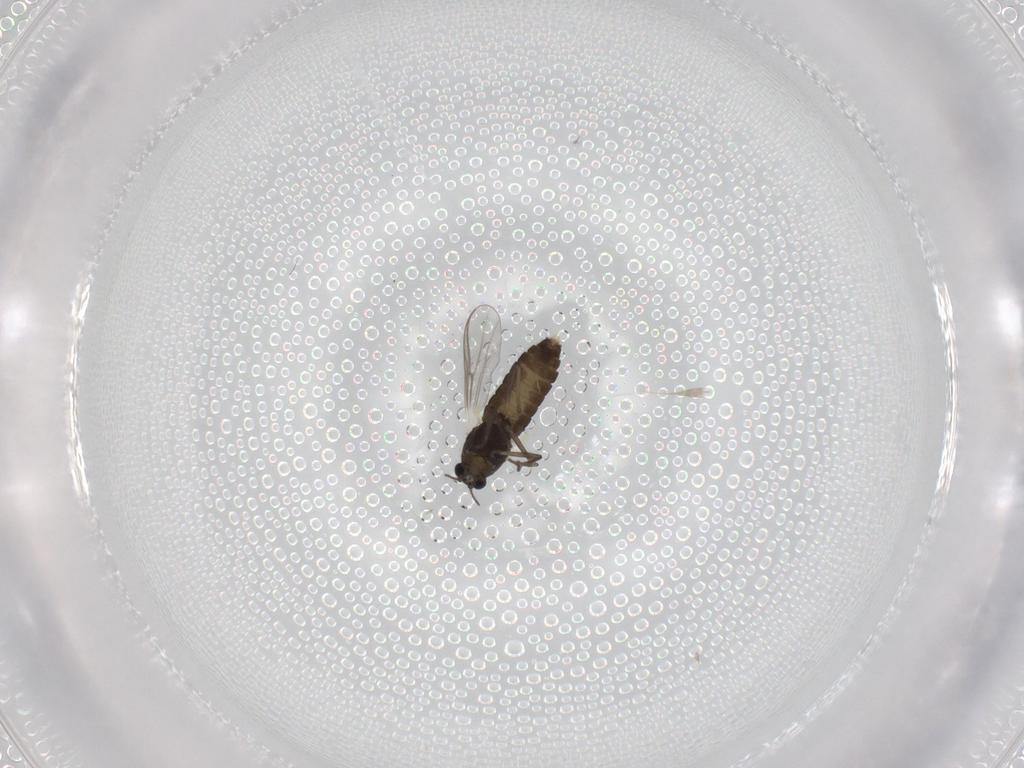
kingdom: Animalia
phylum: Arthropoda
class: Insecta
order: Diptera
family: Chironomidae
